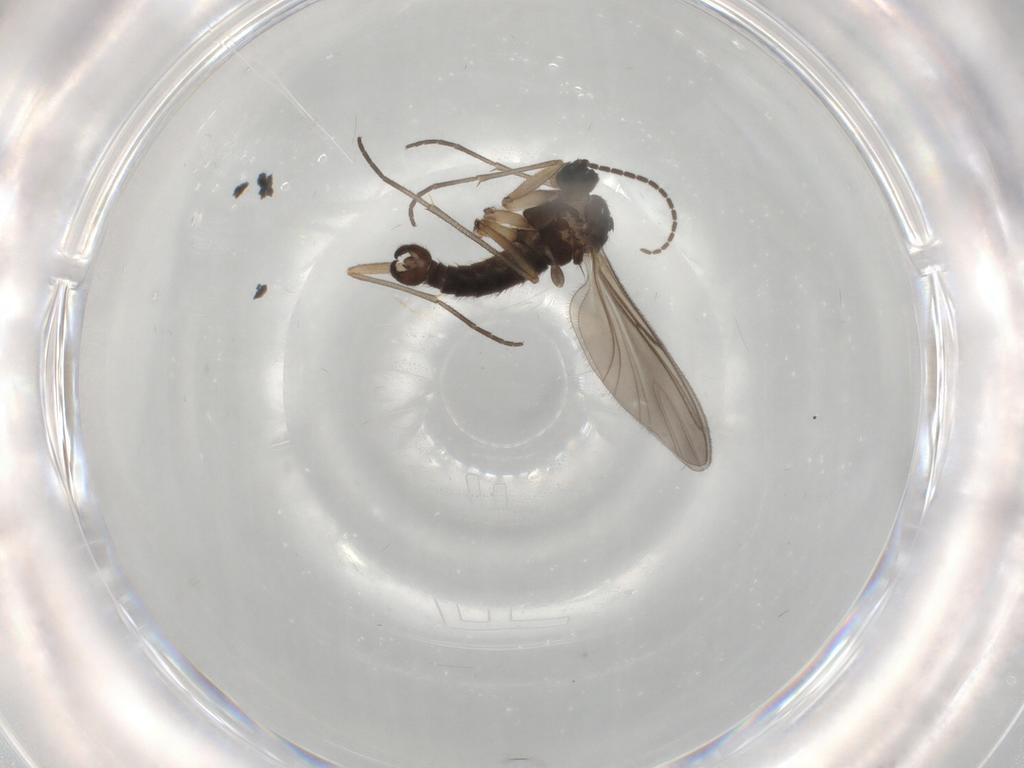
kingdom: Animalia
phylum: Arthropoda
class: Insecta
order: Diptera
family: Sciaridae
